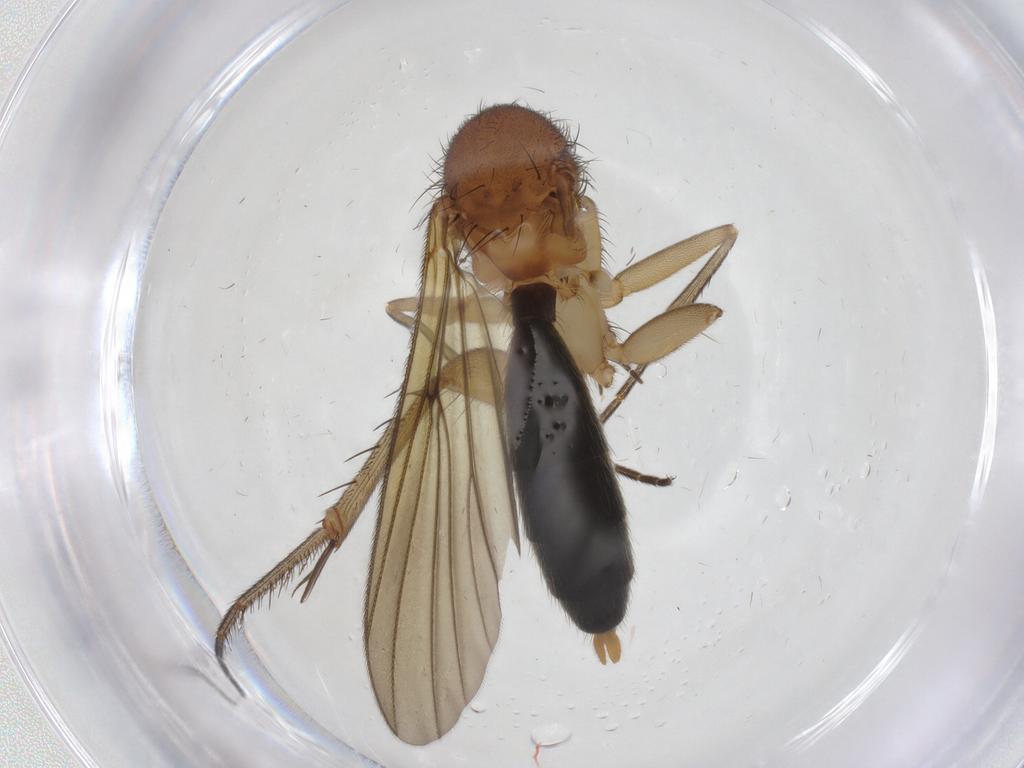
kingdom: Animalia
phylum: Arthropoda
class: Insecta
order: Diptera
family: Mycetophilidae
